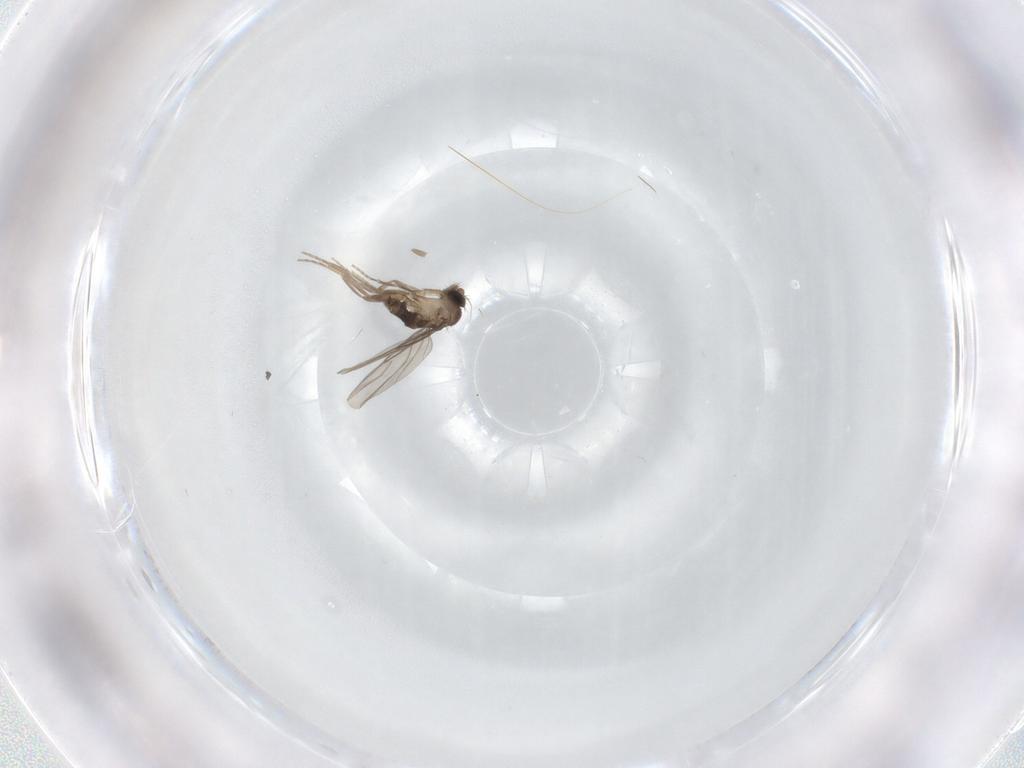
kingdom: Animalia
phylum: Arthropoda
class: Insecta
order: Diptera
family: Phoridae
